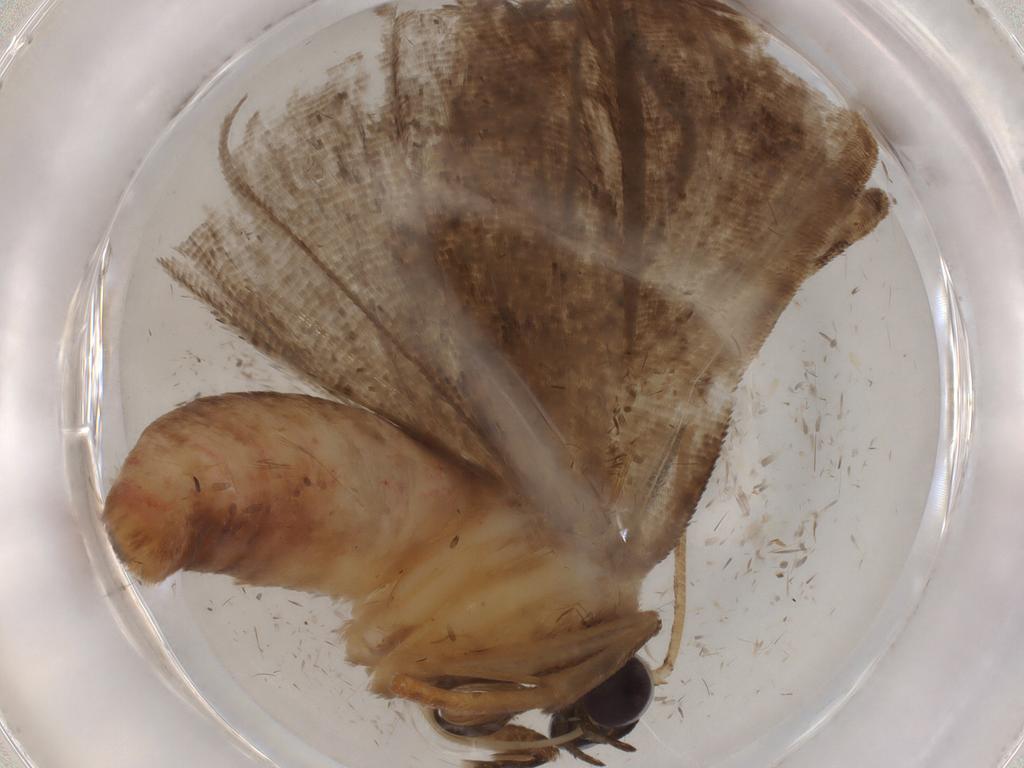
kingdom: Animalia
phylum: Arthropoda
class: Insecta
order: Lepidoptera
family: Uraniidae
